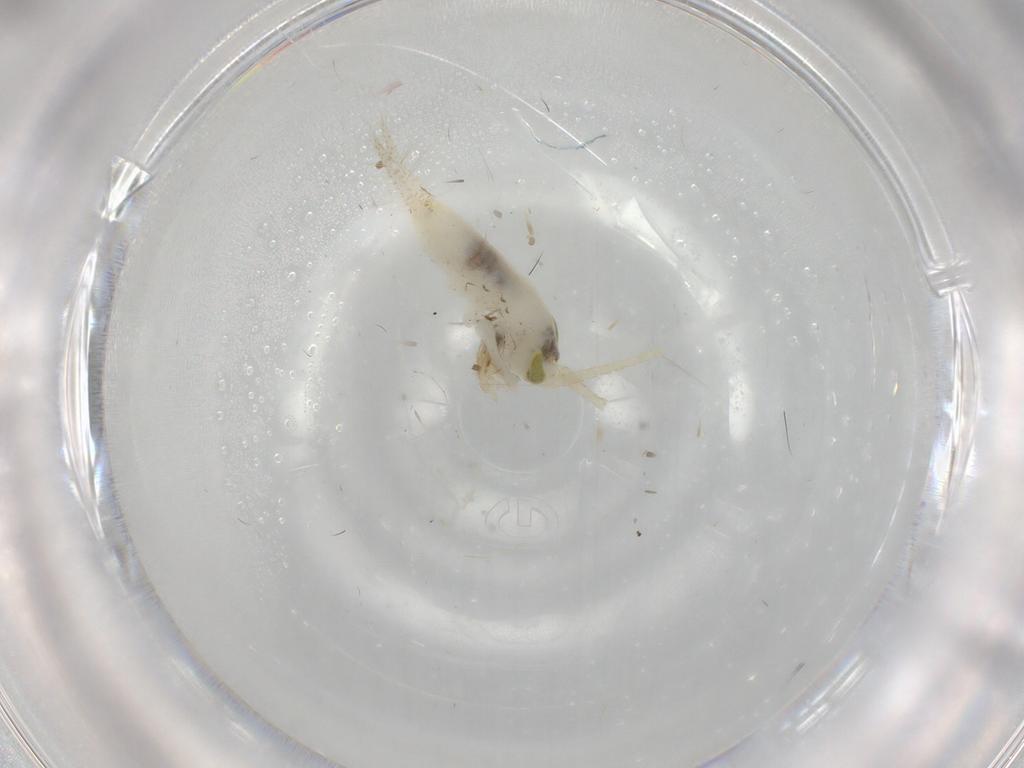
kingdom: Animalia
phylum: Arthropoda
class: Insecta
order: Orthoptera
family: Trigonidiidae
